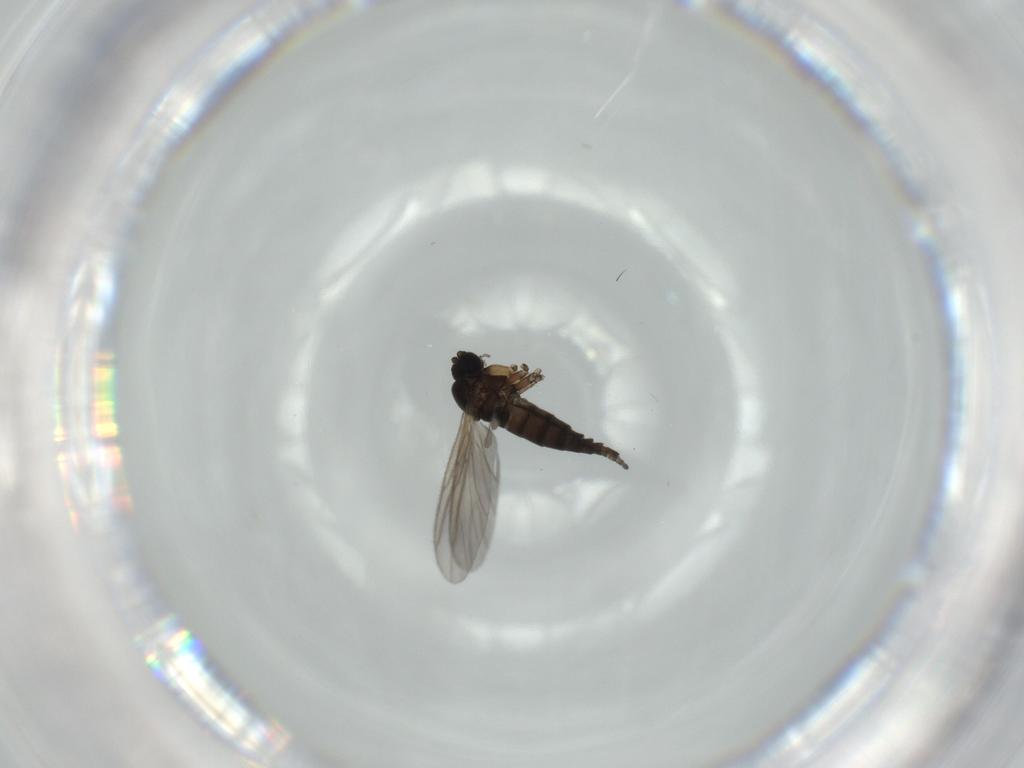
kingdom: Animalia
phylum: Arthropoda
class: Insecta
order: Diptera
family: Sciaridae
